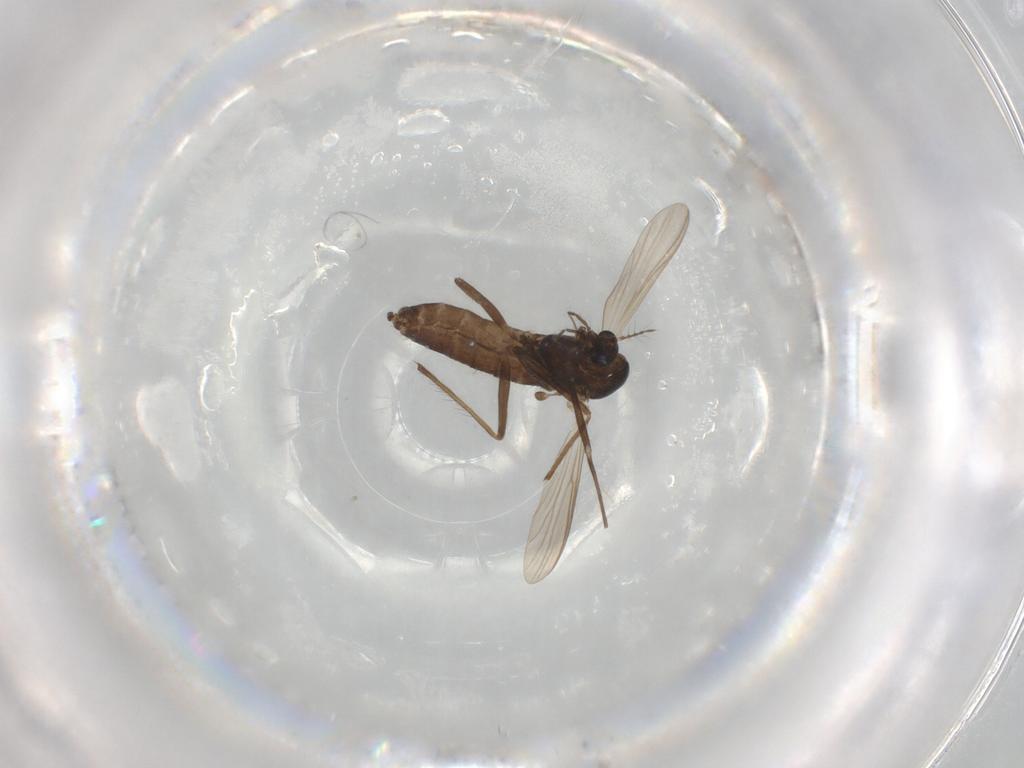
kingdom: Animalia
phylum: Arthropoda
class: Insecta
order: Diptera
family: Chironomidae
